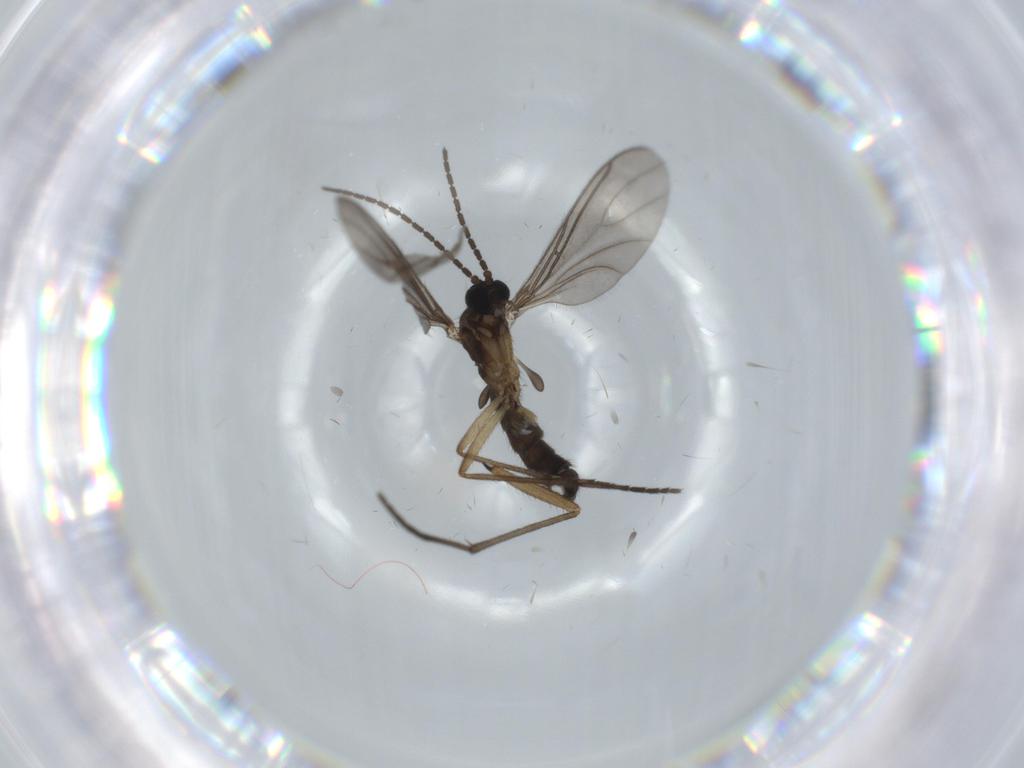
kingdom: Animalia
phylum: Arthropoda
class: Insecta
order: Diptera
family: Sciaridae
